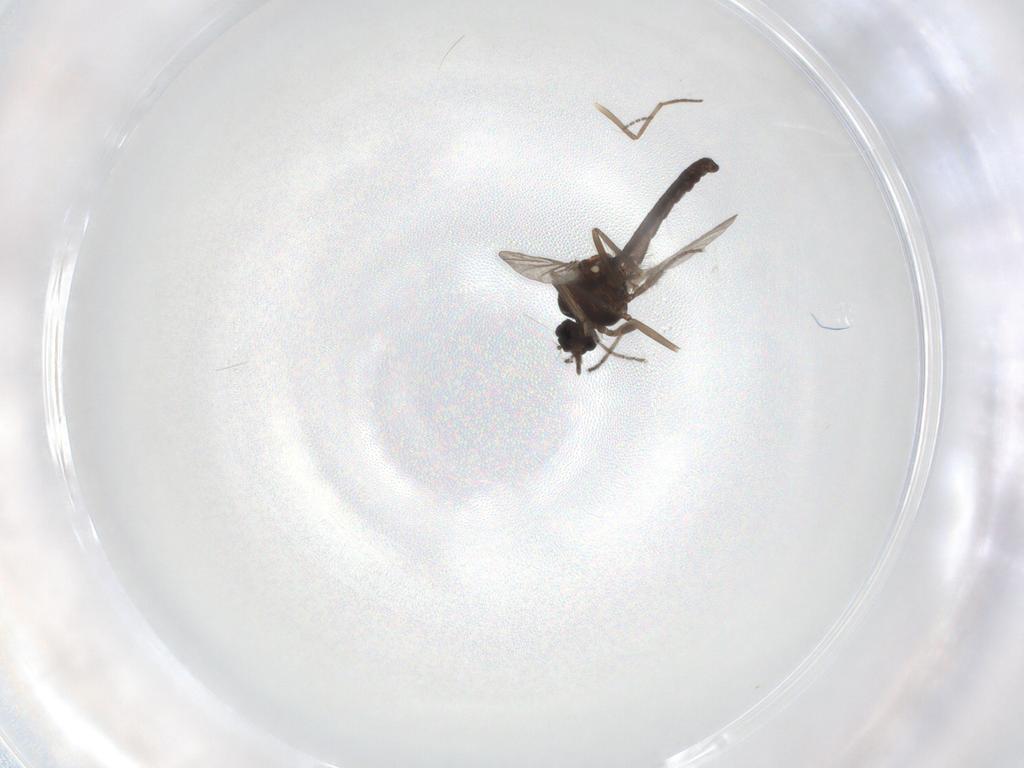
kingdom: Animalia
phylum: Arthropoda
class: Insecta
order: Diptera
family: Ceratopogonidae
